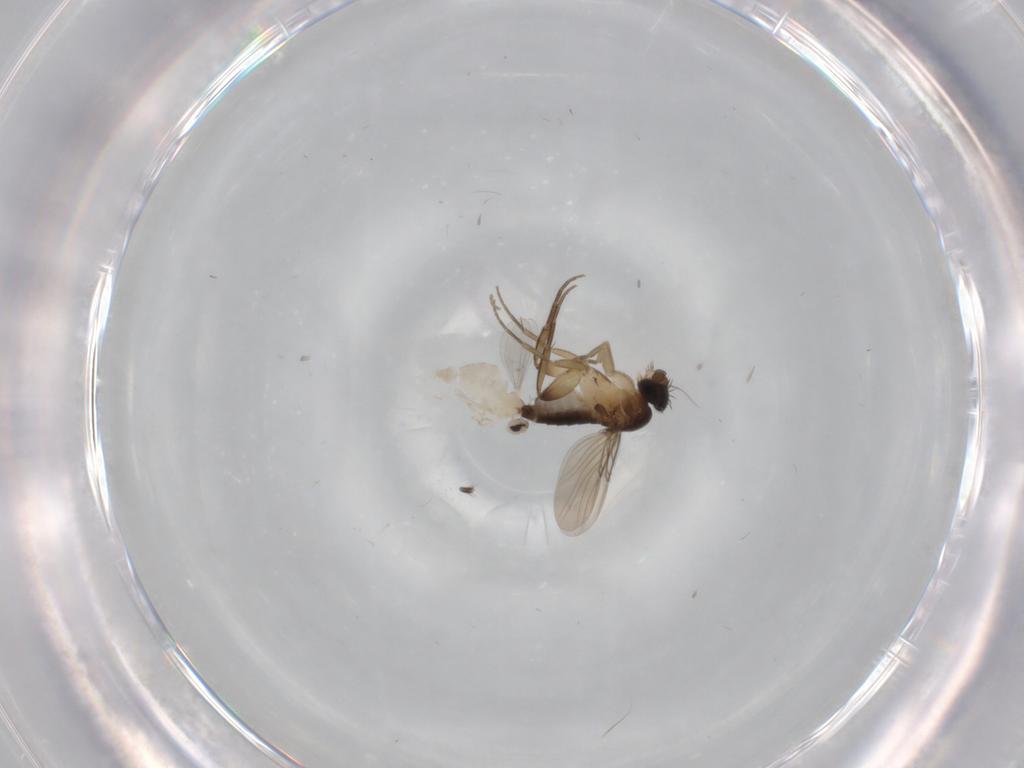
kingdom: Animalia
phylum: Arthropoda
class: Insecta
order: Diptera
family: Cecidomyiidae
